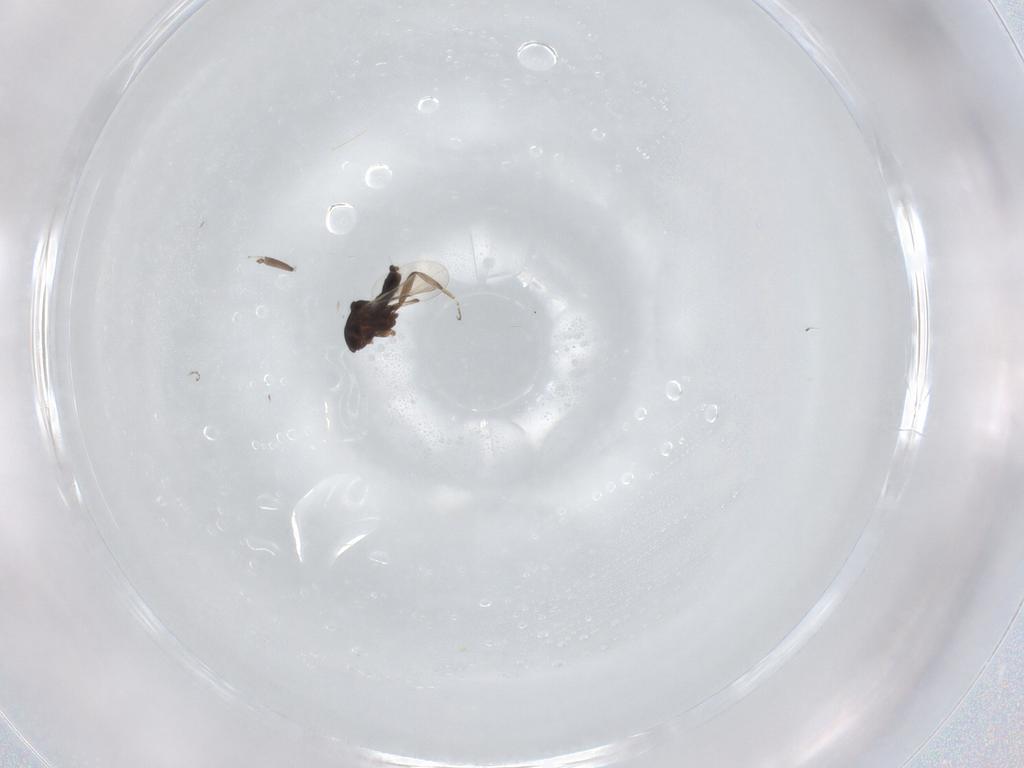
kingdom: Animalia
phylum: Arthropoda
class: Insecta
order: Diptera
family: Ceratopogonidae
